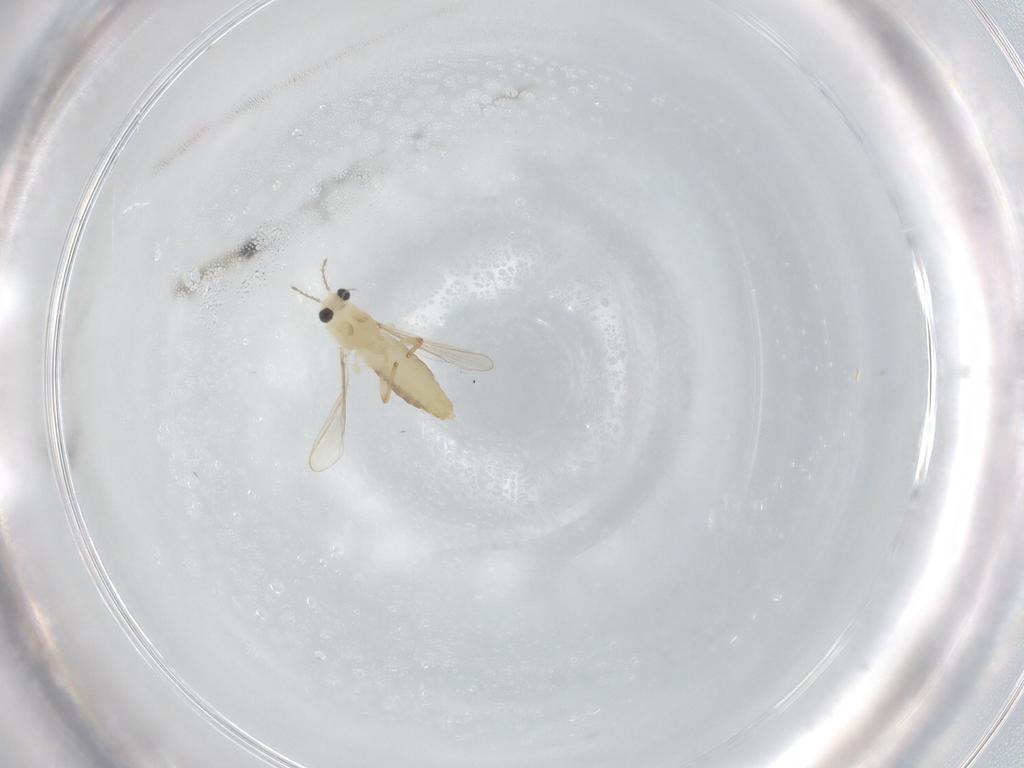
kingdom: Animalia
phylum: Arthropoda
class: Insecta
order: Diptera
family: Chironomidae
